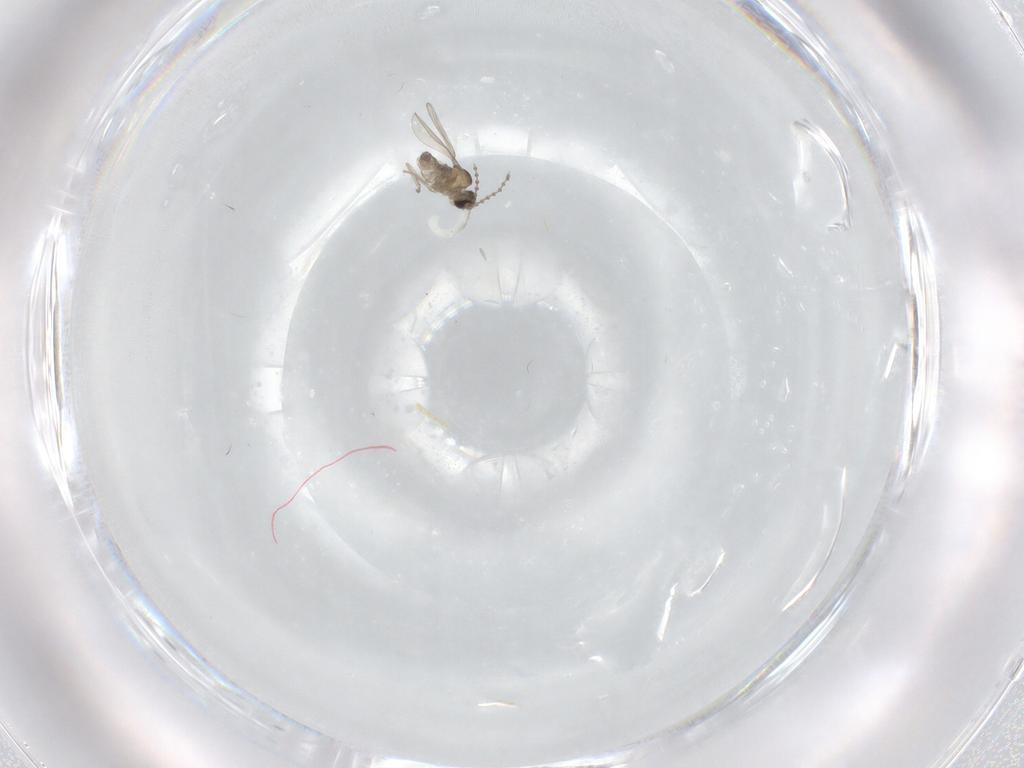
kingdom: Animalia
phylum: Arthropoda
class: Insecta
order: Diptera
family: Cecidomyiidae
